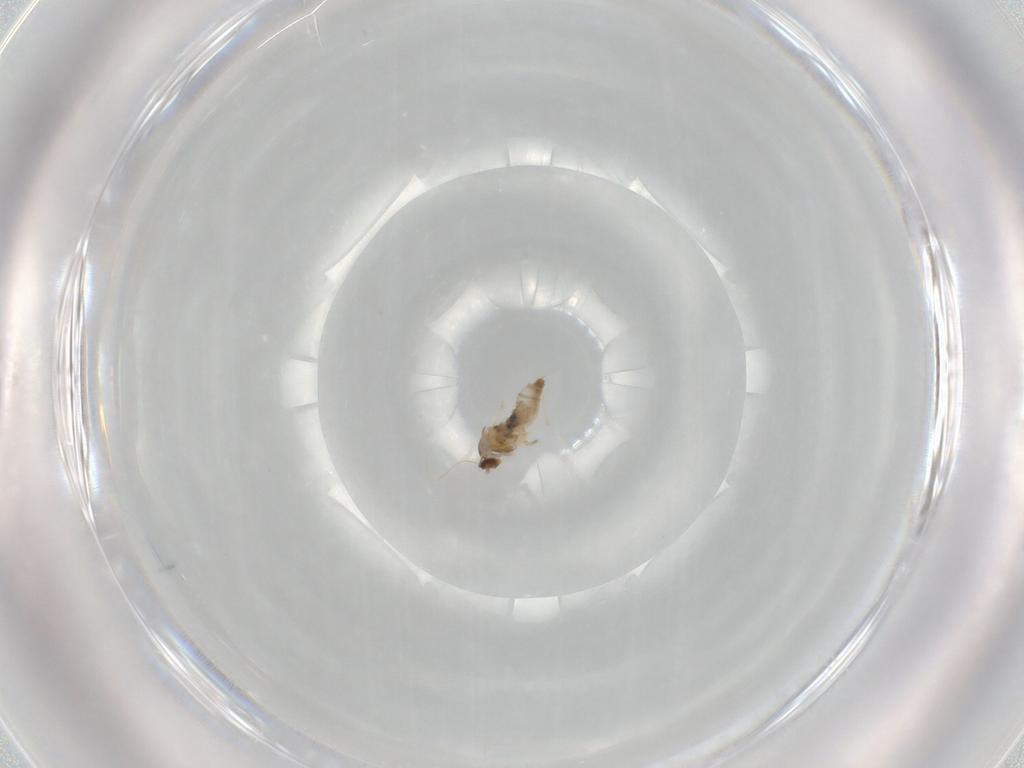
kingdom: Animalia
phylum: Arthropoda
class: Insecta
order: Diptera
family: Cecidomyiidae
